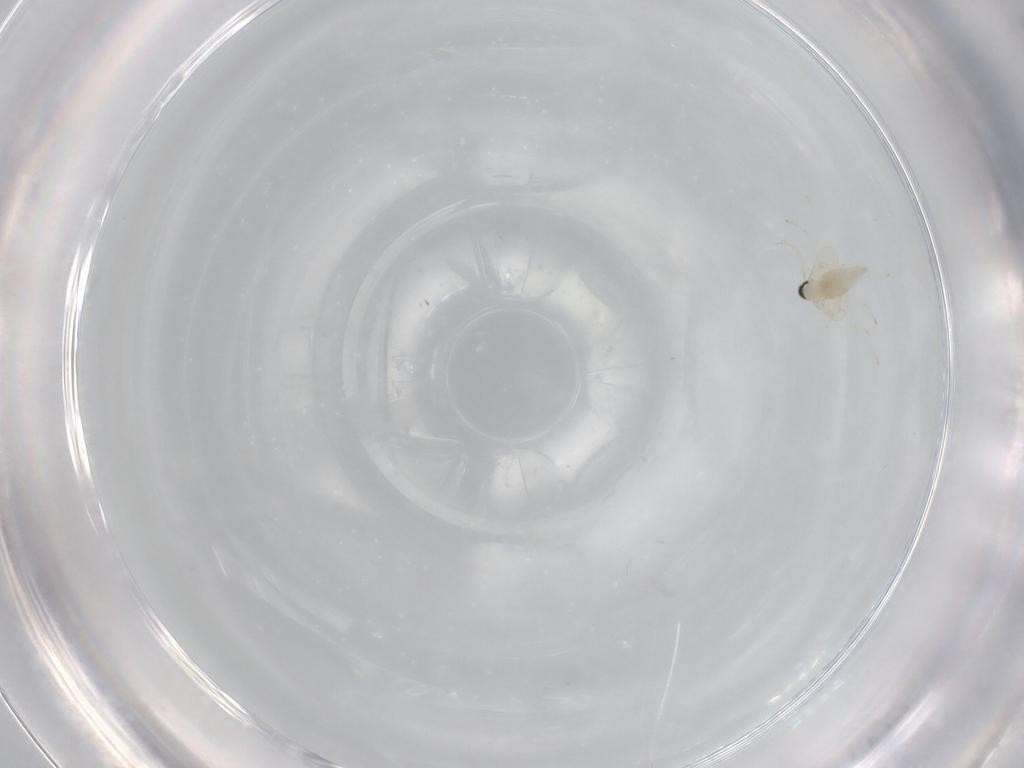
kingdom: Animalia
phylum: Arthropoda
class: Insecta
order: Diptera
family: Cecidomyiidae
